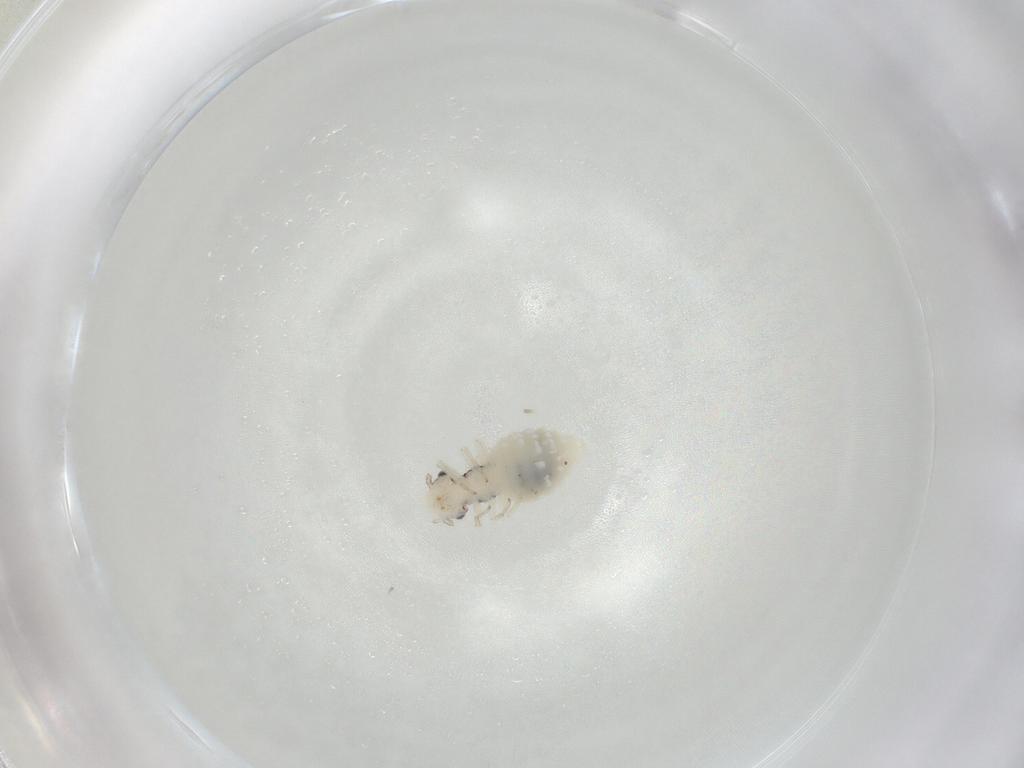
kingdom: Animalia
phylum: Arthropoda
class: Insecta
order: Psocodea
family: Caeciliusidae
